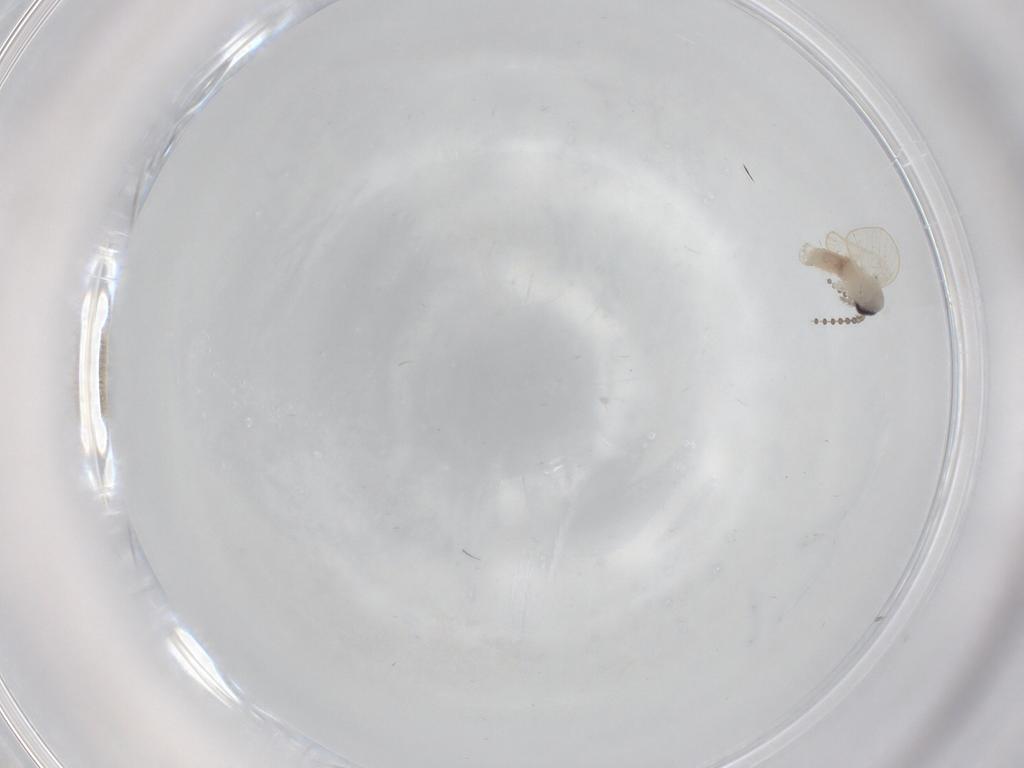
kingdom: Animalia
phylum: Arthropoda
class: Insecta
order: Diptera
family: Psychodidae
